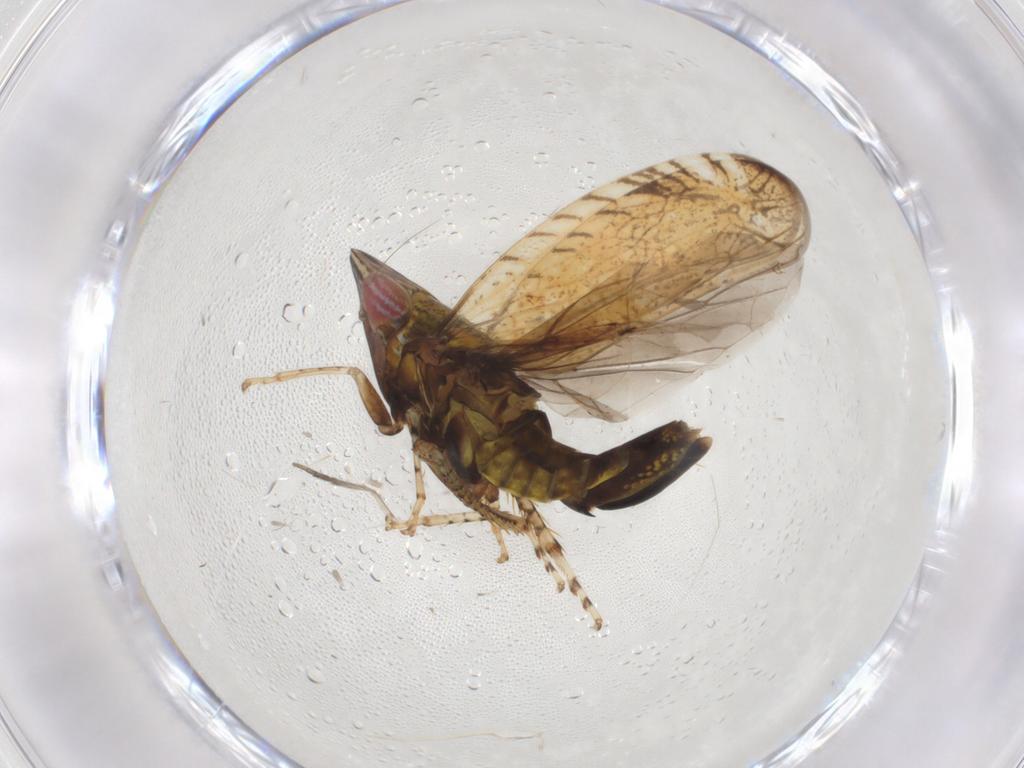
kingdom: Animalia
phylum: Arthropoda
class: Insecta
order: Hemiptera
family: Cicadellidae
